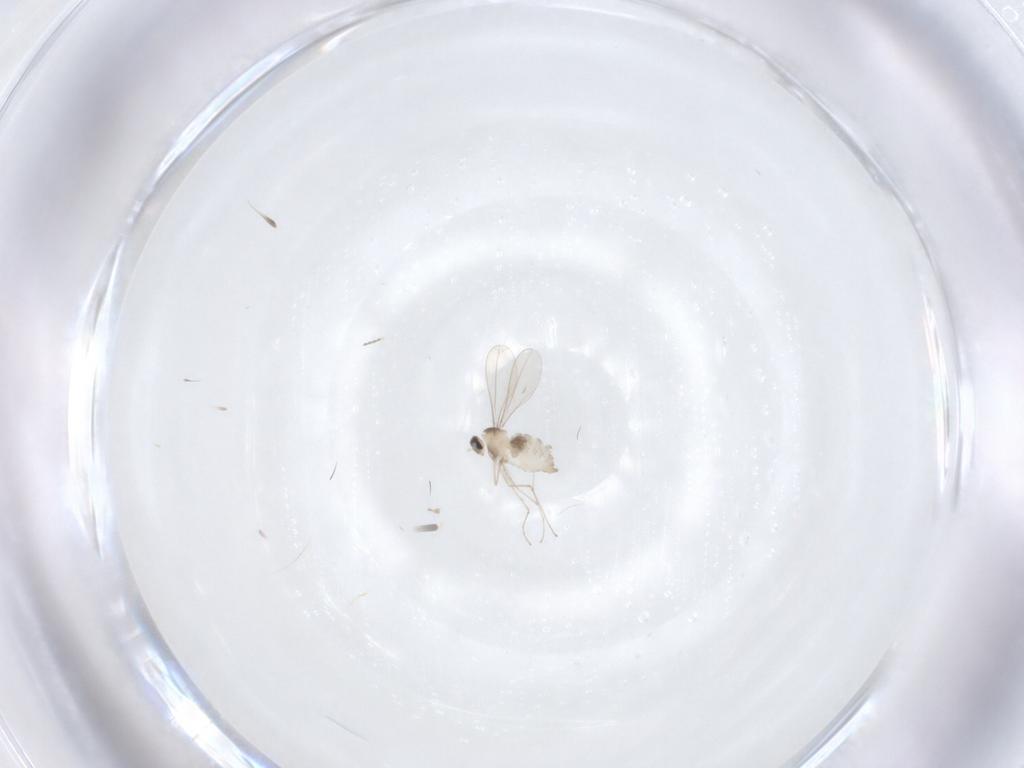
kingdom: Animalia
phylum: Arthropoda
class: Insecta
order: Diptera
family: Cecidomyiidae
